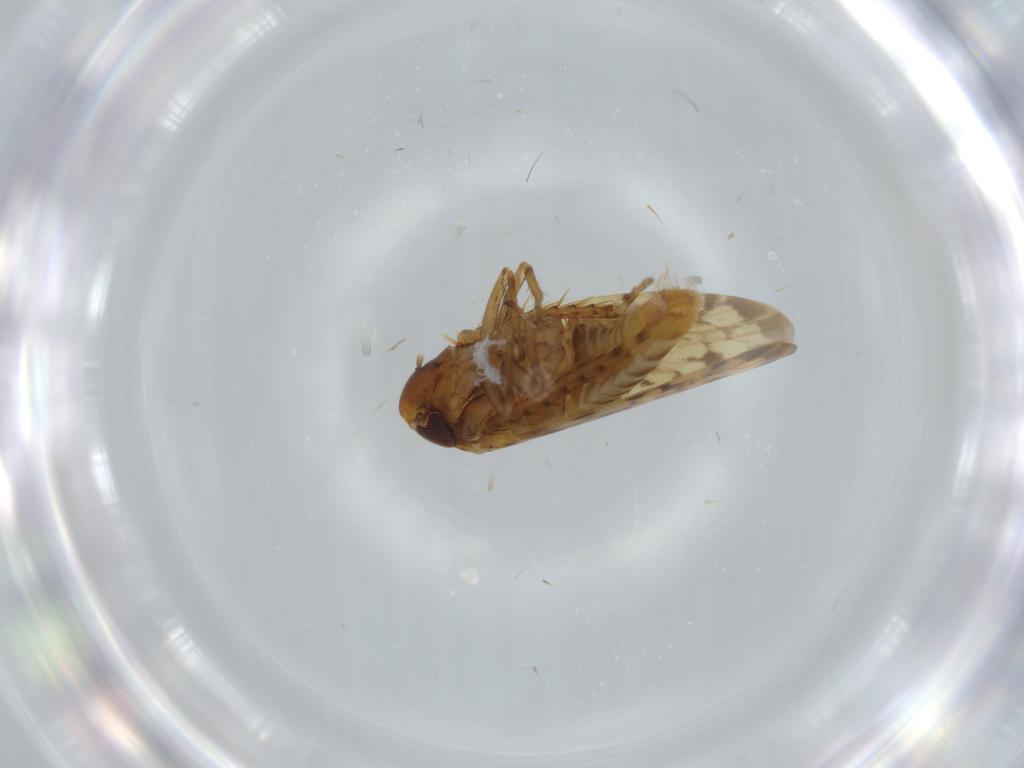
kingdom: Animalia
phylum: Arthropoda
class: Insecta
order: Hemiptera
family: Cicadellidae
